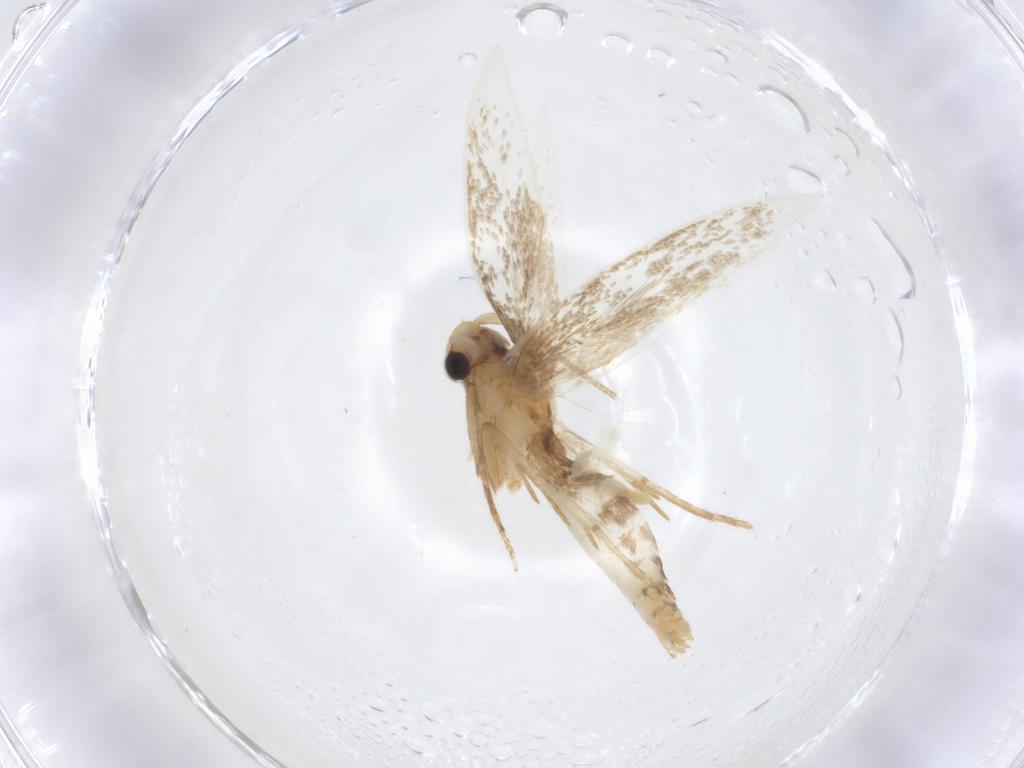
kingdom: Animalia
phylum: Arthropoda
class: Insecta
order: Lepidoptera
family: Tineidae
